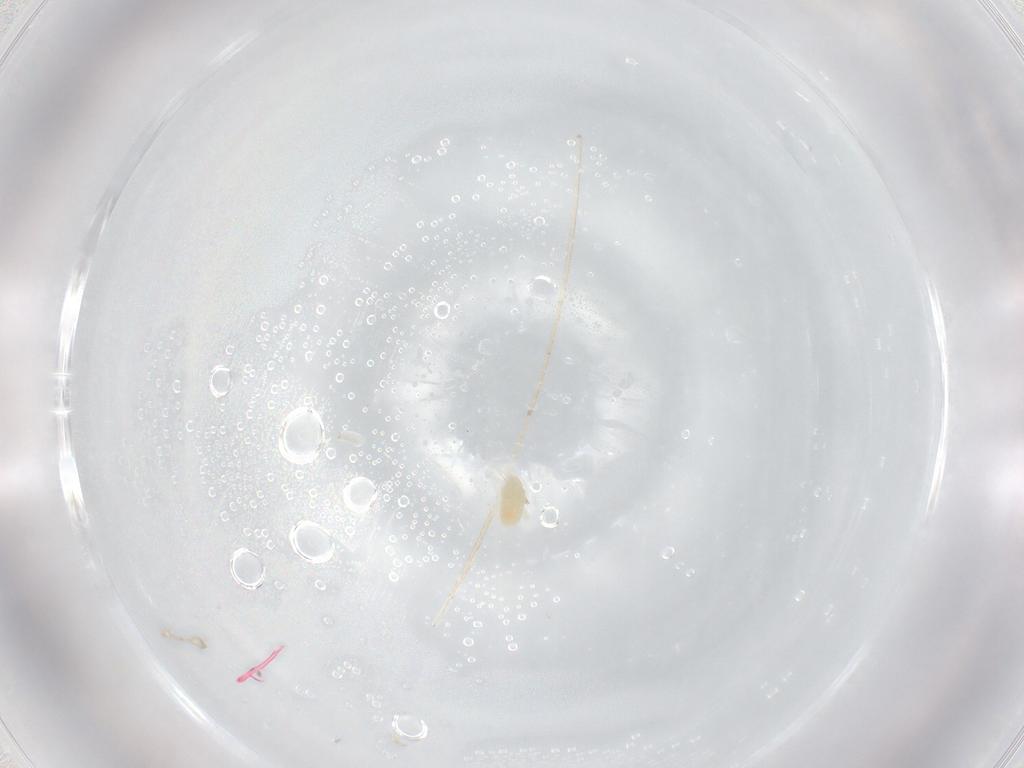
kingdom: Animalia
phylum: Arthropoda
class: Arachnida
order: Trombidiformes
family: Eupodidae
